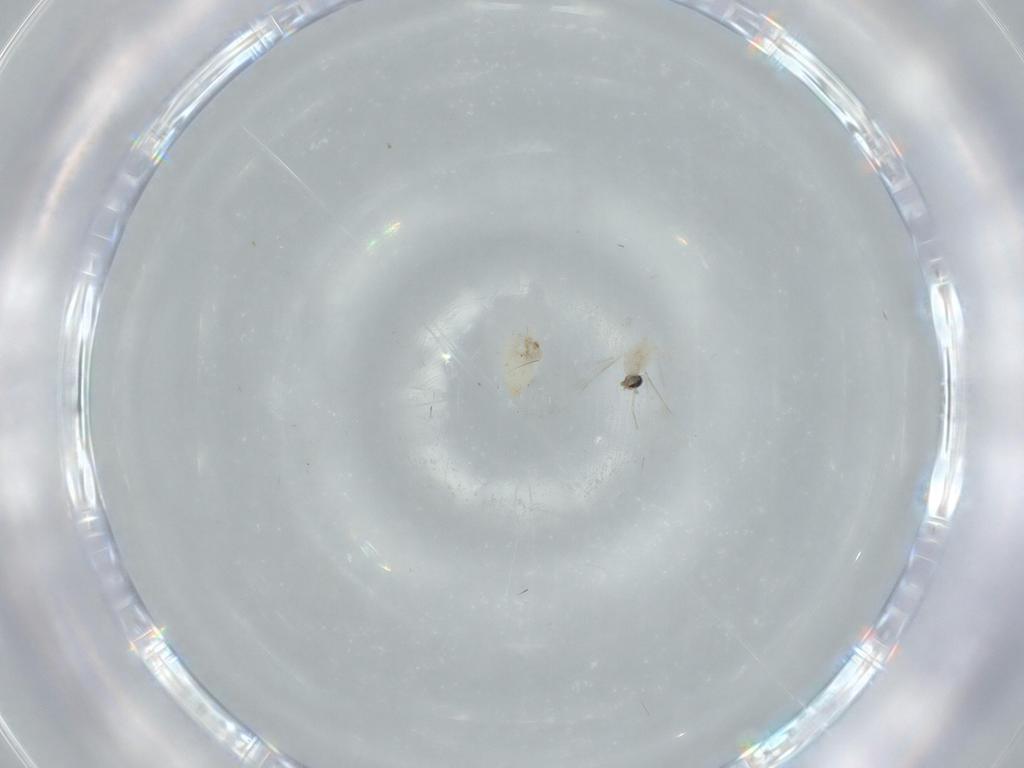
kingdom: Animalia
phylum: Arthropoda
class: Insecta
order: Diptera
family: Cecidomyiidae
